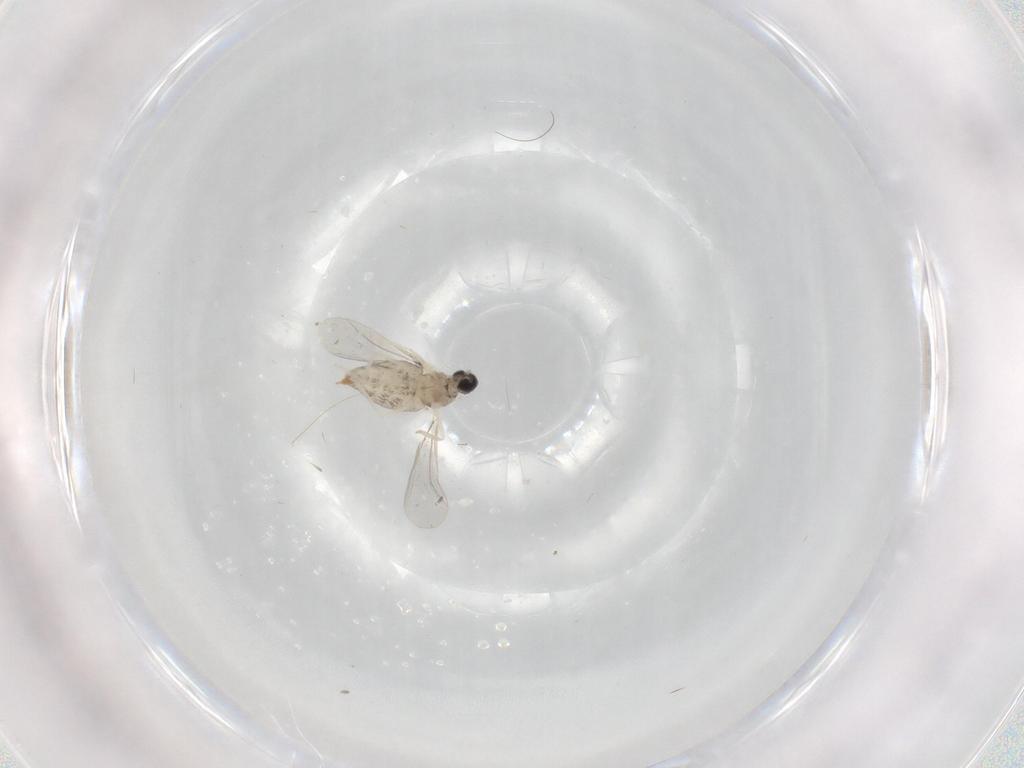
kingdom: Animalia
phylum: Arthropoda
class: Insecta
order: Diptera
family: Cecidomyiidae
